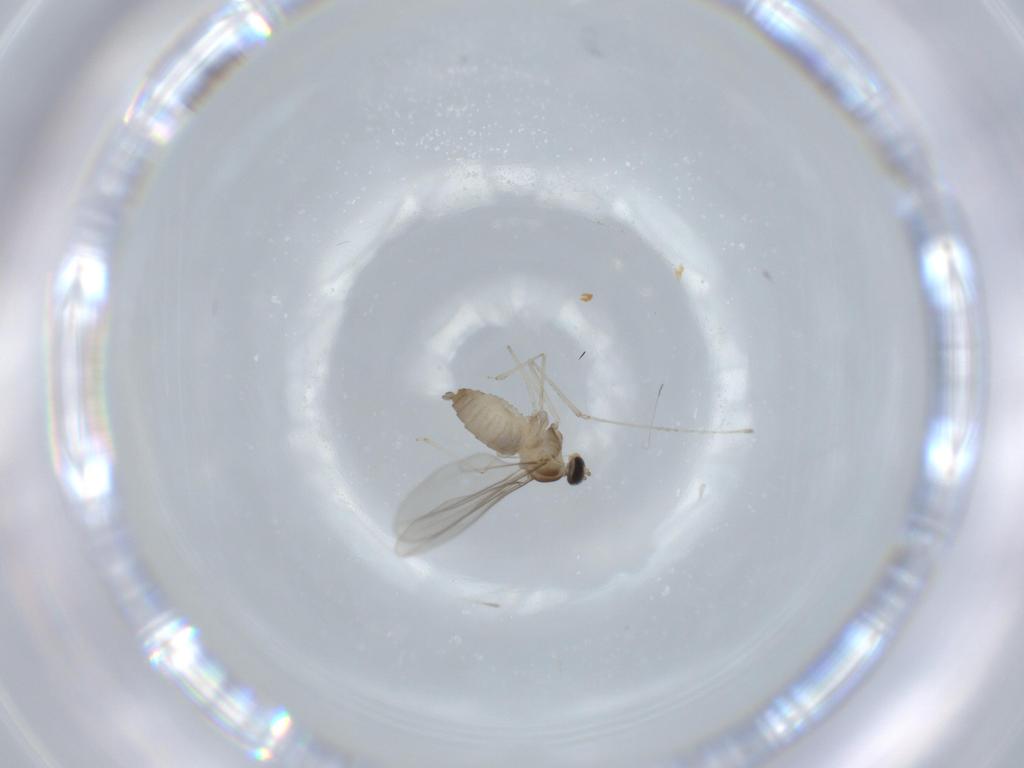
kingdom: Animalia
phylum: Arthropoda
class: Insecta
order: Diptera
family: Cecidomyiidae
